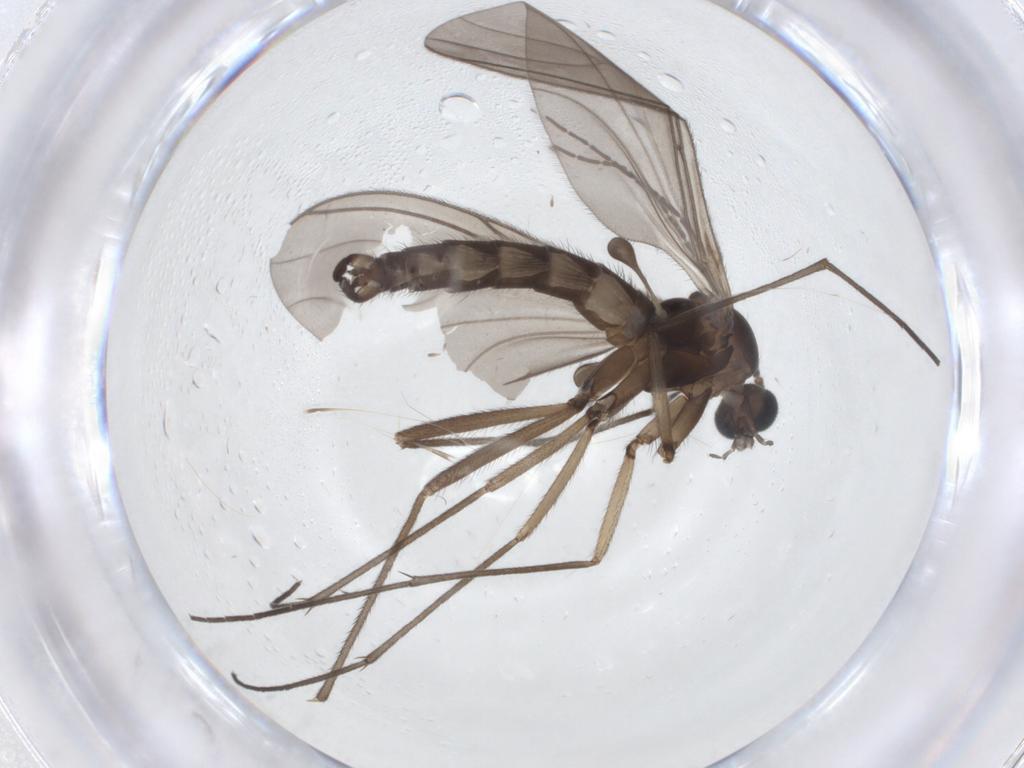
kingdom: Animalia
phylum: Arthropoda
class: Insecta
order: Diptera
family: Sciaridae
